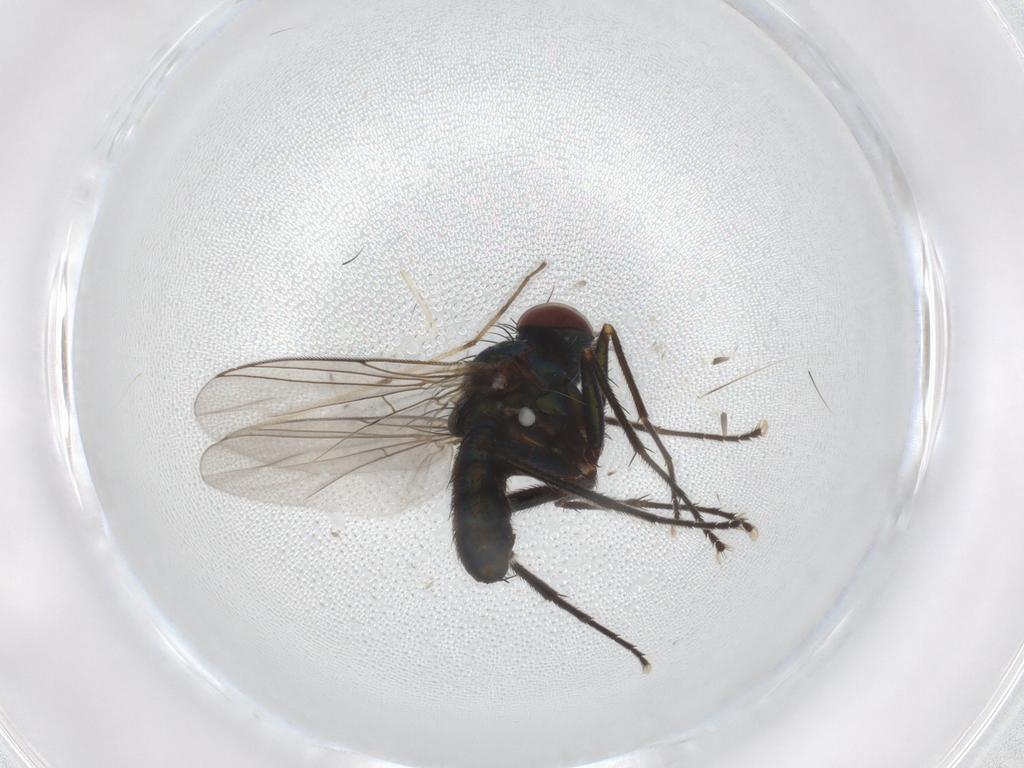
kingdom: Animalia
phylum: Arthropoda
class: Insecta
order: Diptera
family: Dolichopodidae
